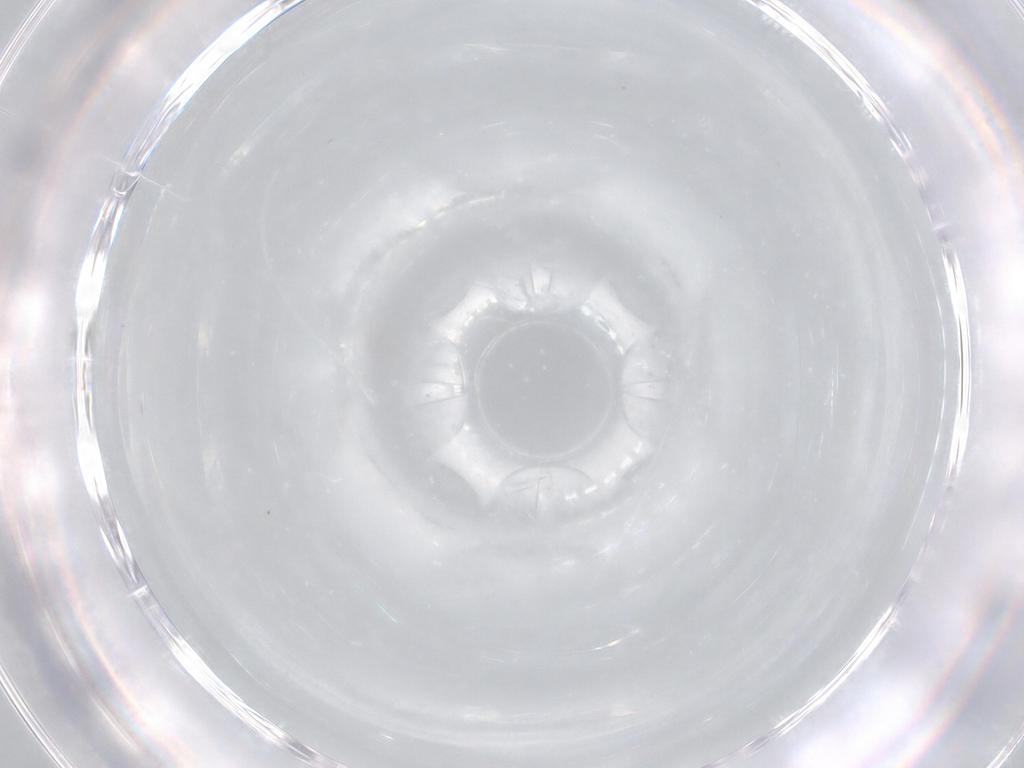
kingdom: Animalia
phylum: Arthropoda
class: Insecta
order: Diptera
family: Chironomidae
